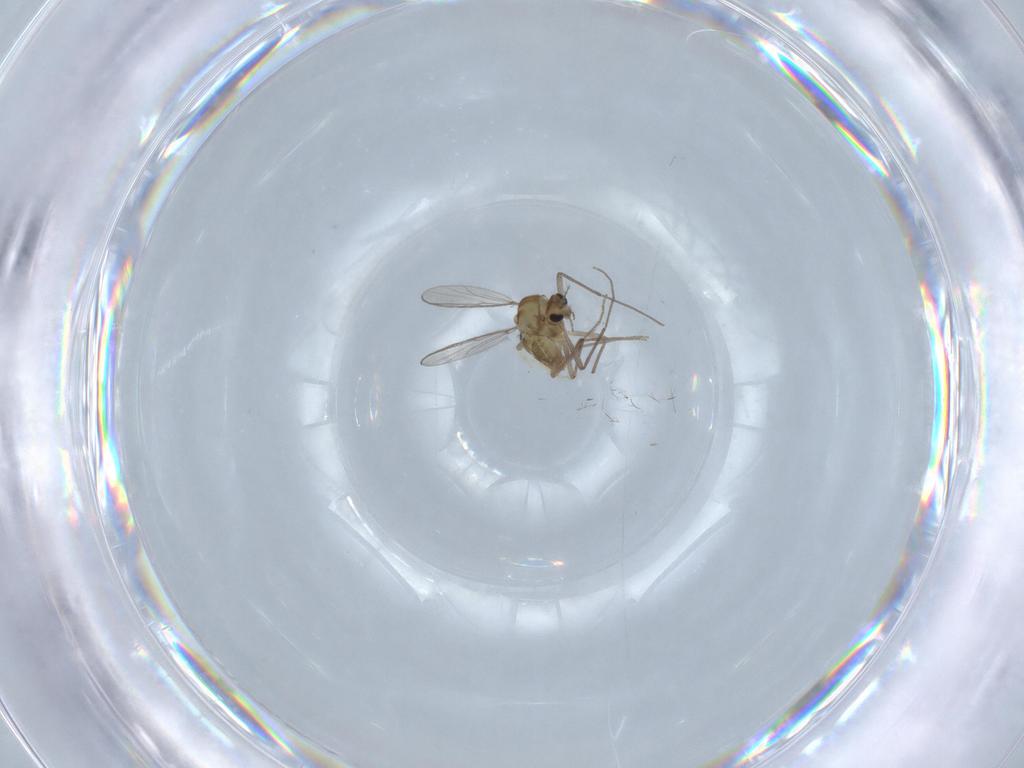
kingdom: Animalia
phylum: Arthropoda
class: Insecta
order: Diptera
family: Chironomidae
